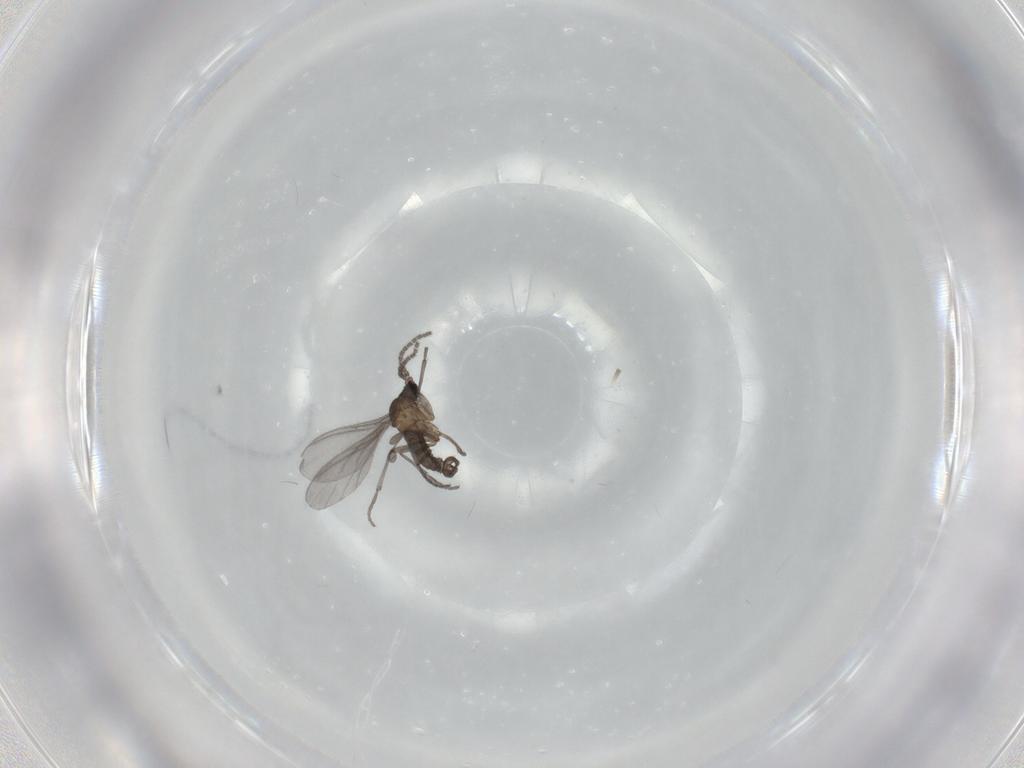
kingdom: Animalia
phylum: Arthropoda
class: Insecta
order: Diptera
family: Sciaridae
